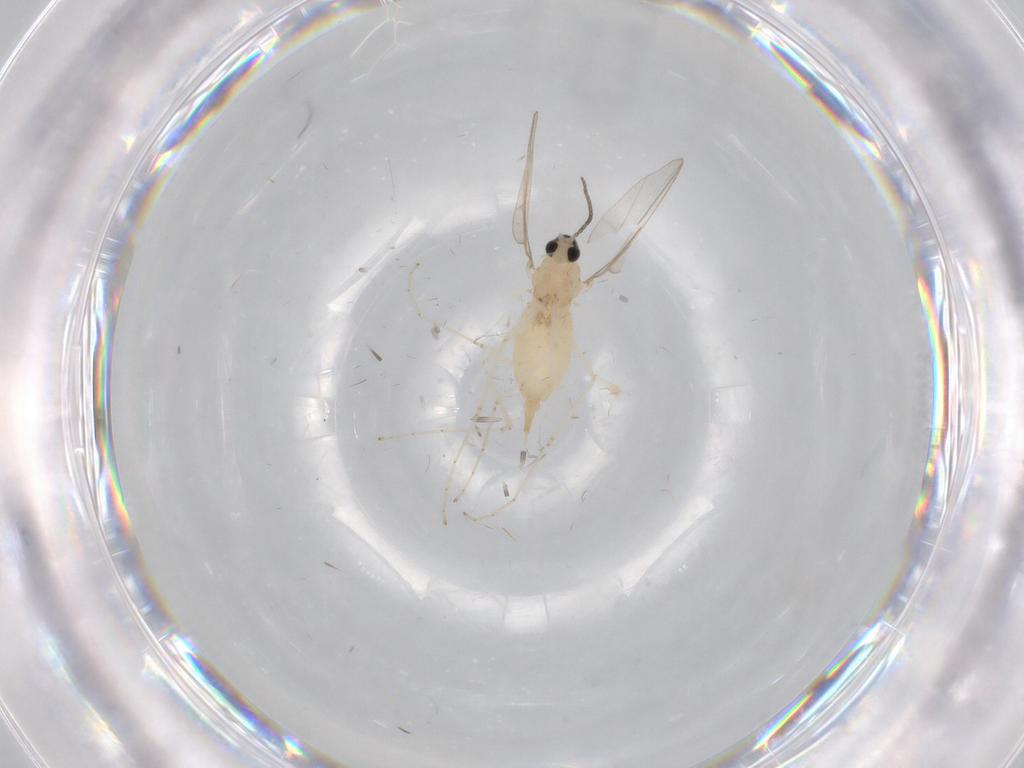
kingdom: Animalia
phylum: Arthropoda
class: Insecta
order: Diptera
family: Cecidomyiidae
